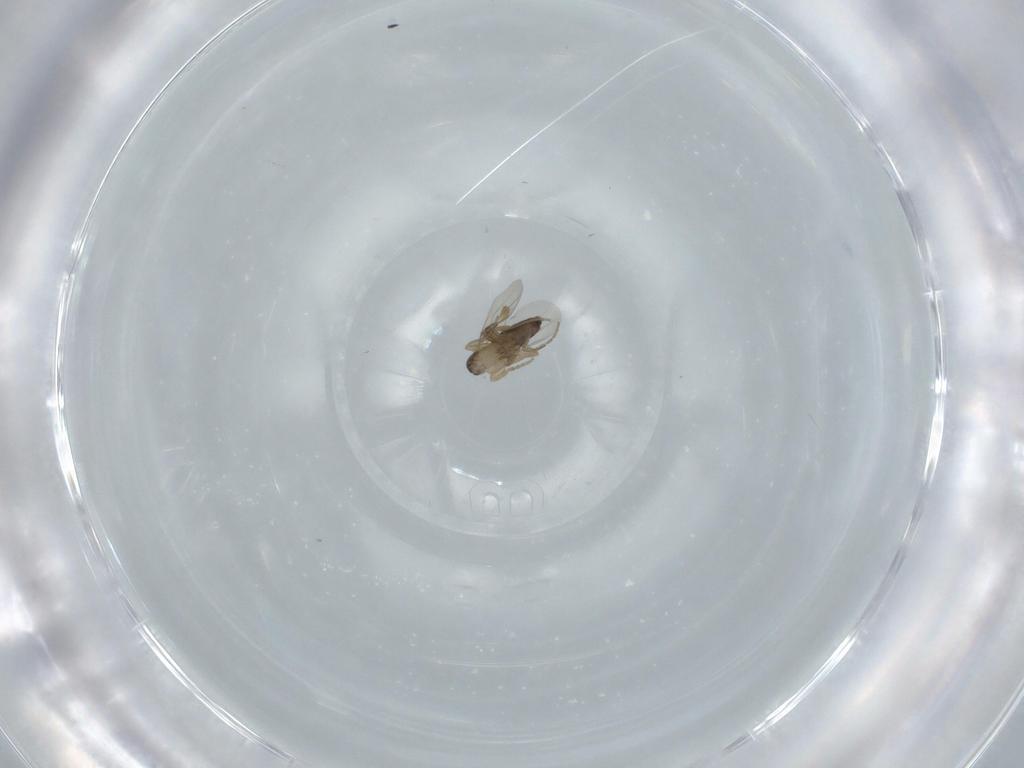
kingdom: Animalia
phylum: Arthropoda
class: Insecta
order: Diptera
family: Phoridae
